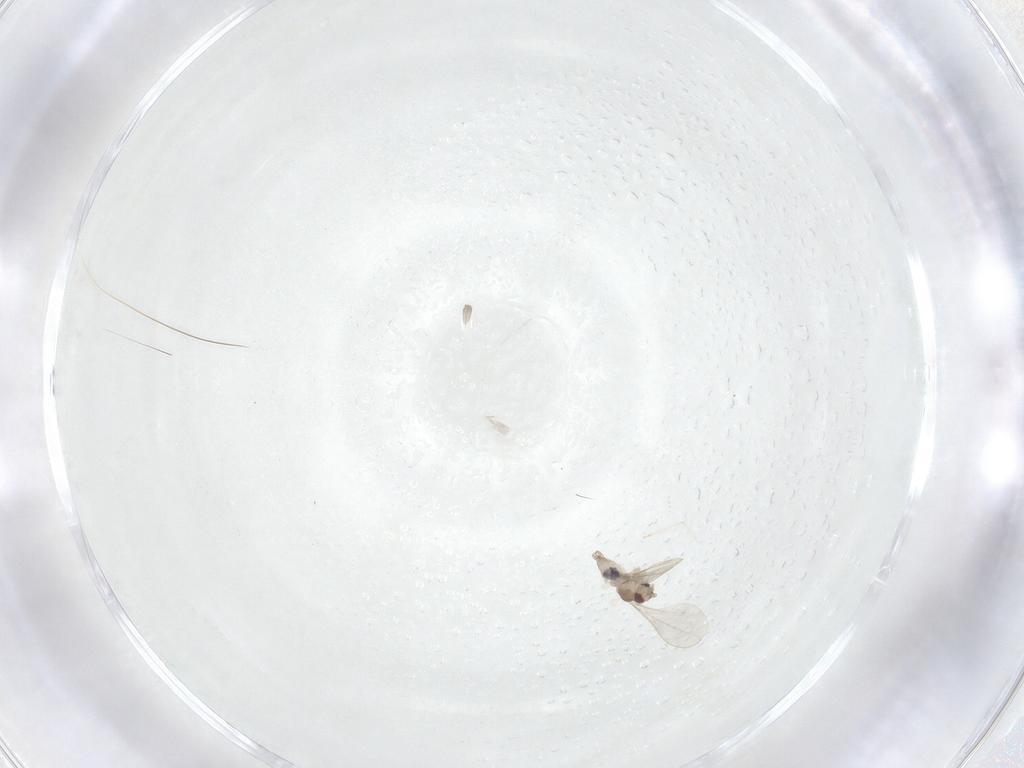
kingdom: Animalia
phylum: Arthropoda
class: Insecta
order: Diptera
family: Cecidomyiidae
